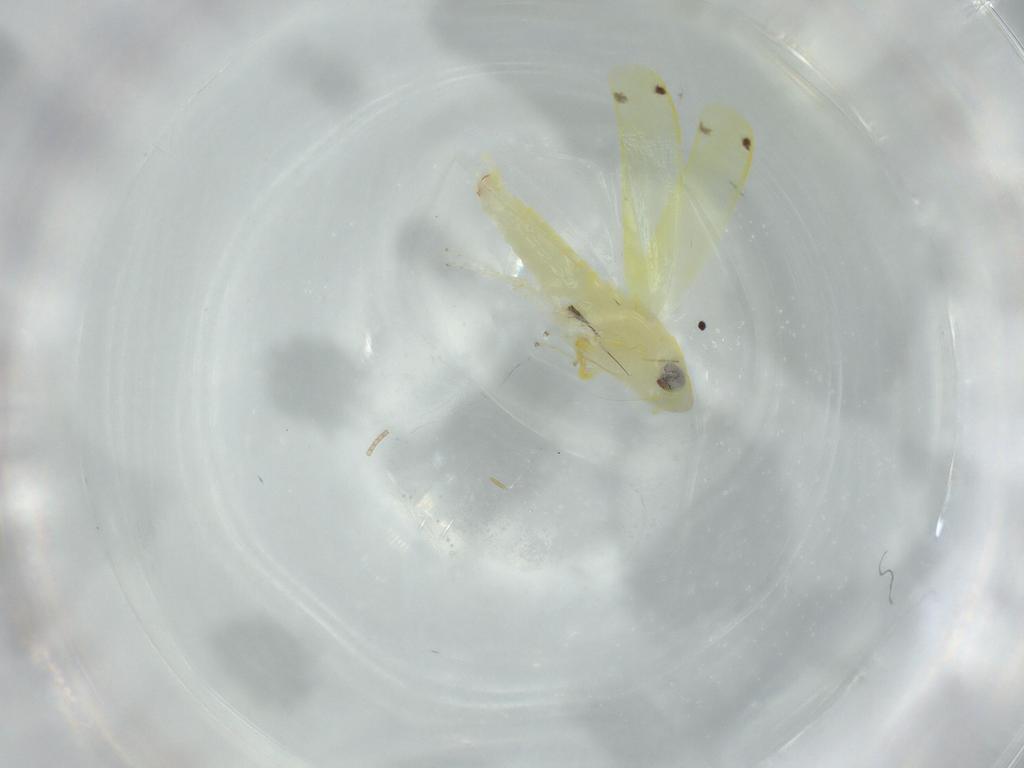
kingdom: Animalia
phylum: Arthropoda
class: Insecta
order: Hemiptera
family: Cicadellidae
